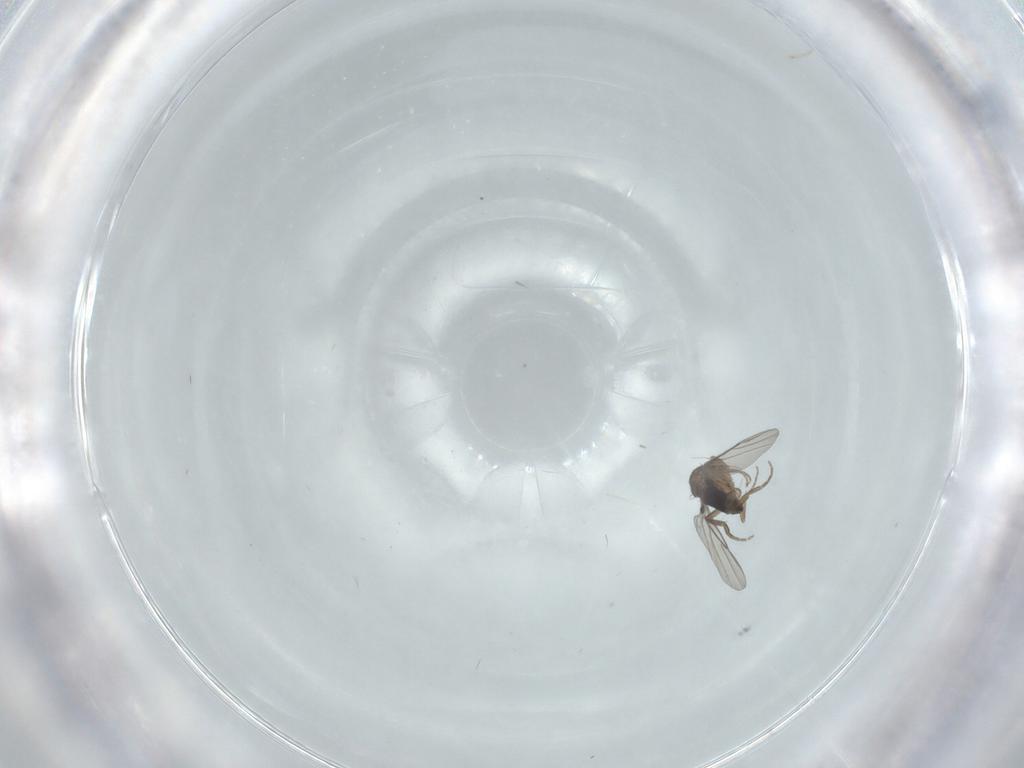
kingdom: Animalia
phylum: Arthropoda
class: Insecta
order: Diptera
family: Phoridae
